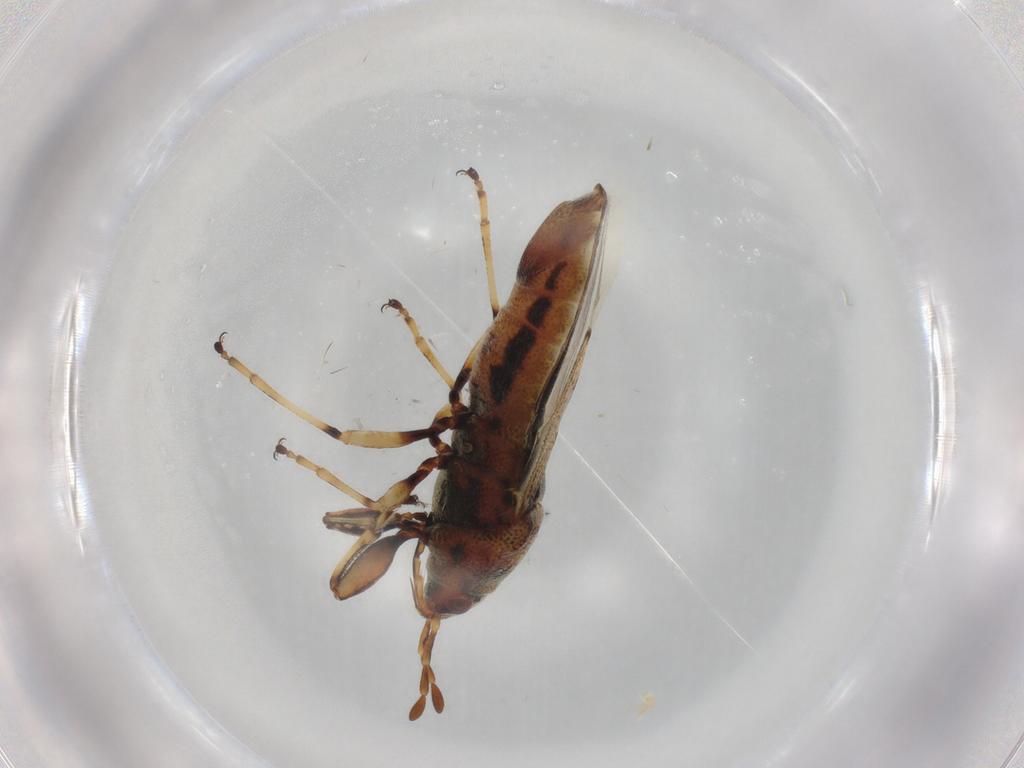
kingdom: Animalia
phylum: Arthropoda
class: Insecta
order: Hemiptera
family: Pachygronthidae
